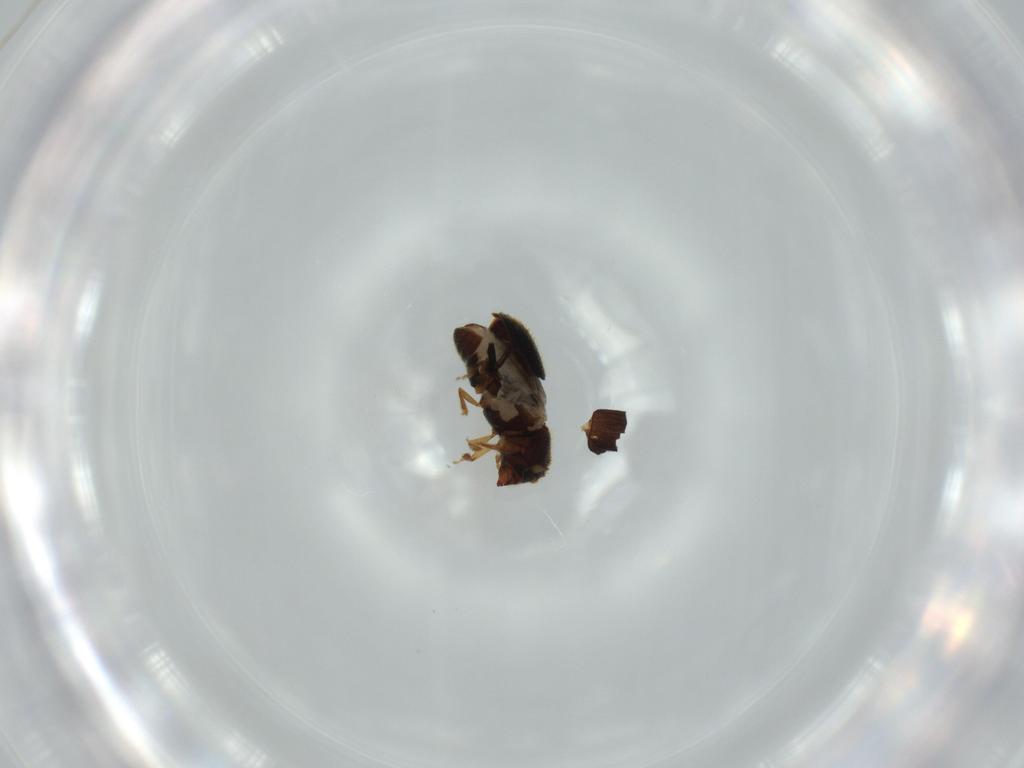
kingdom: Animalia
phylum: Arthropoda
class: Insecta
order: Coleoptera
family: Curculionidae
